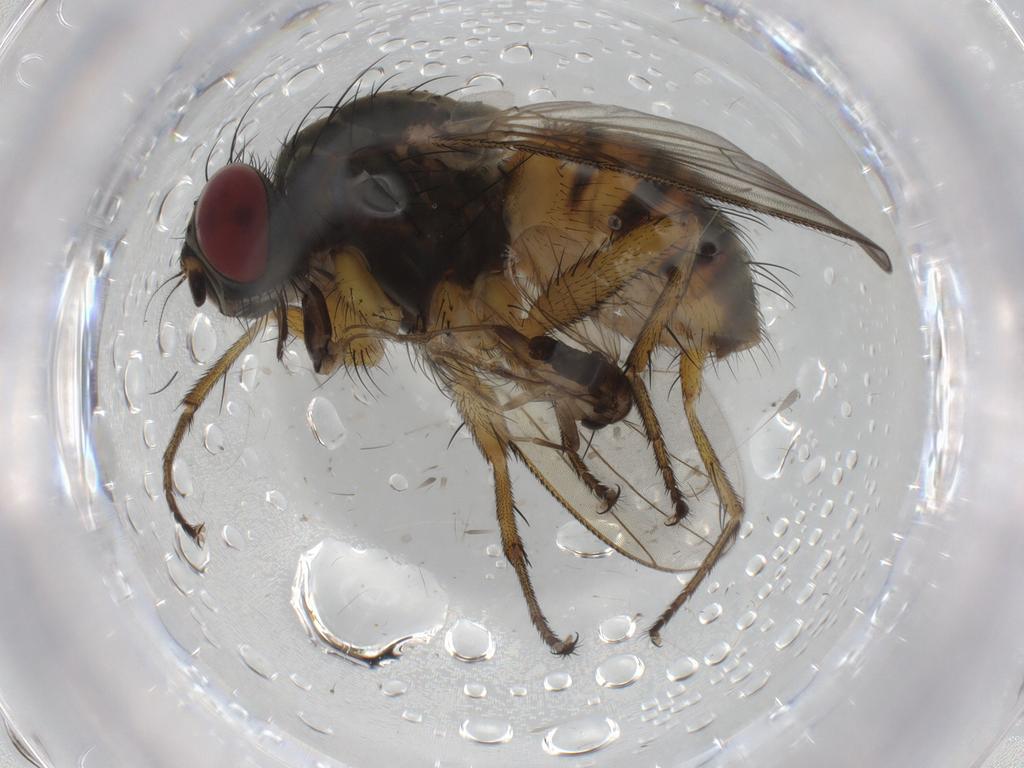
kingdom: Animalia
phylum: Arthropoda
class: Insecta
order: Diptera
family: Muscidae
